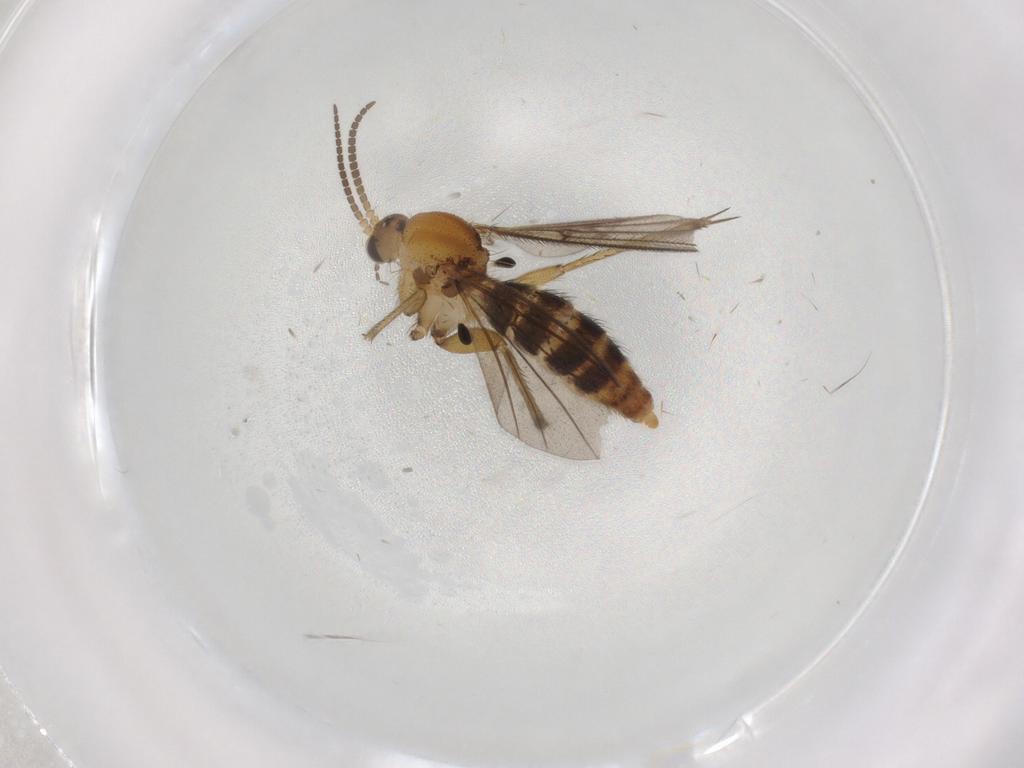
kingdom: Animalia
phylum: Arthropoda
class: Insecta
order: Diptera
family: Mycetophilidae
